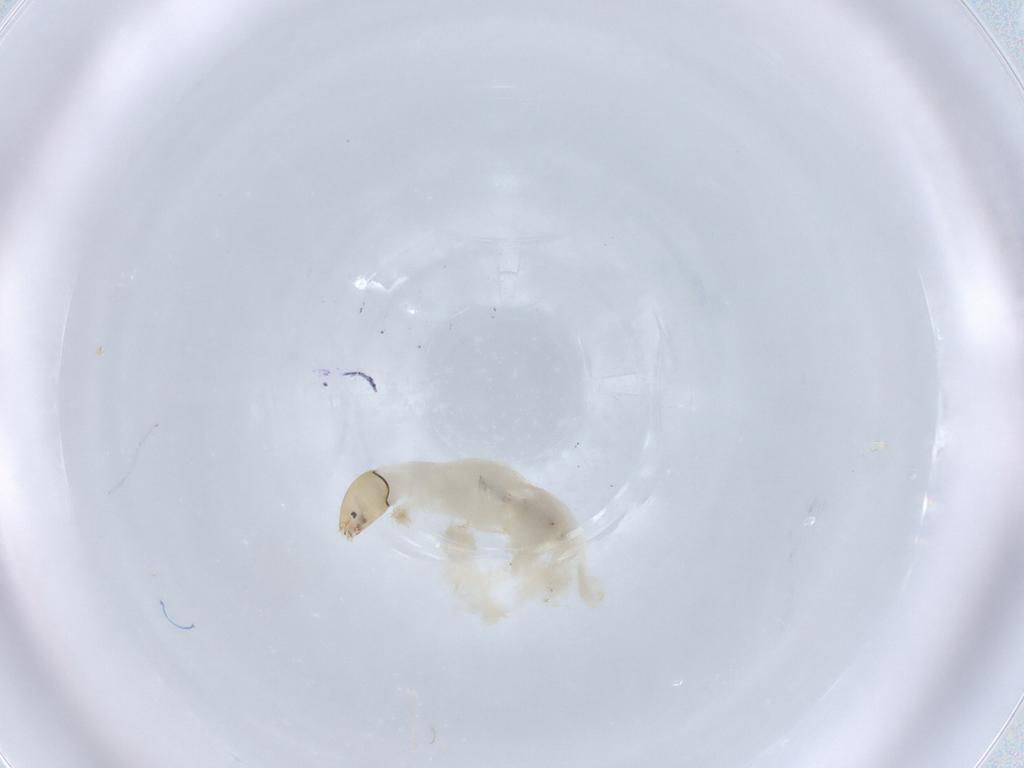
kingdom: Animalia
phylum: Arthropoda
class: Insecta
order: Diptera
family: Chironomidae
